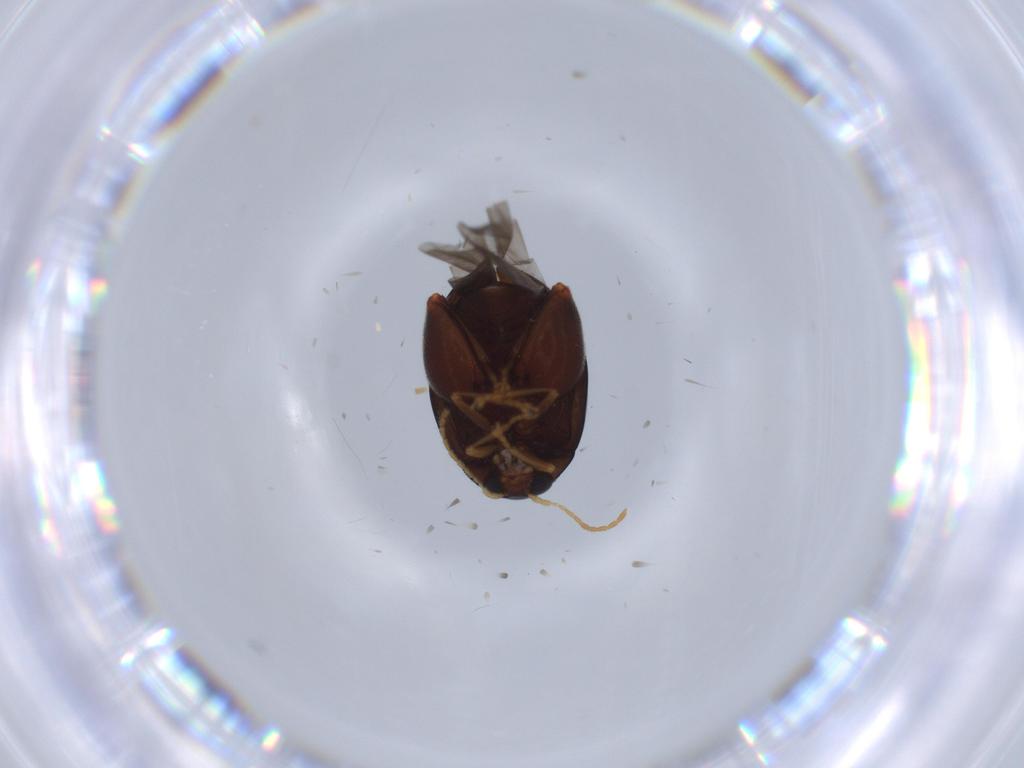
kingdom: Animalia
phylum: Arthropoda
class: Insecta
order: Coleoptera
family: Chrysomelidae
